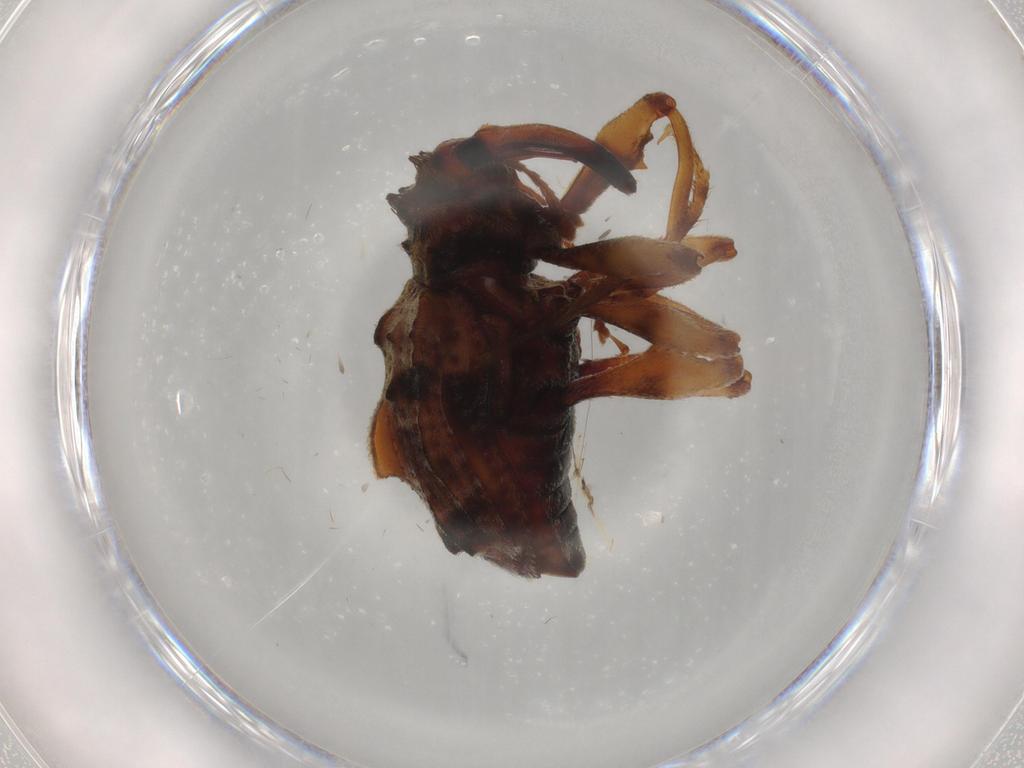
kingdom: Animalia
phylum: Arthropoda
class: Insecta
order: Coleoptera
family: Curculionidae
